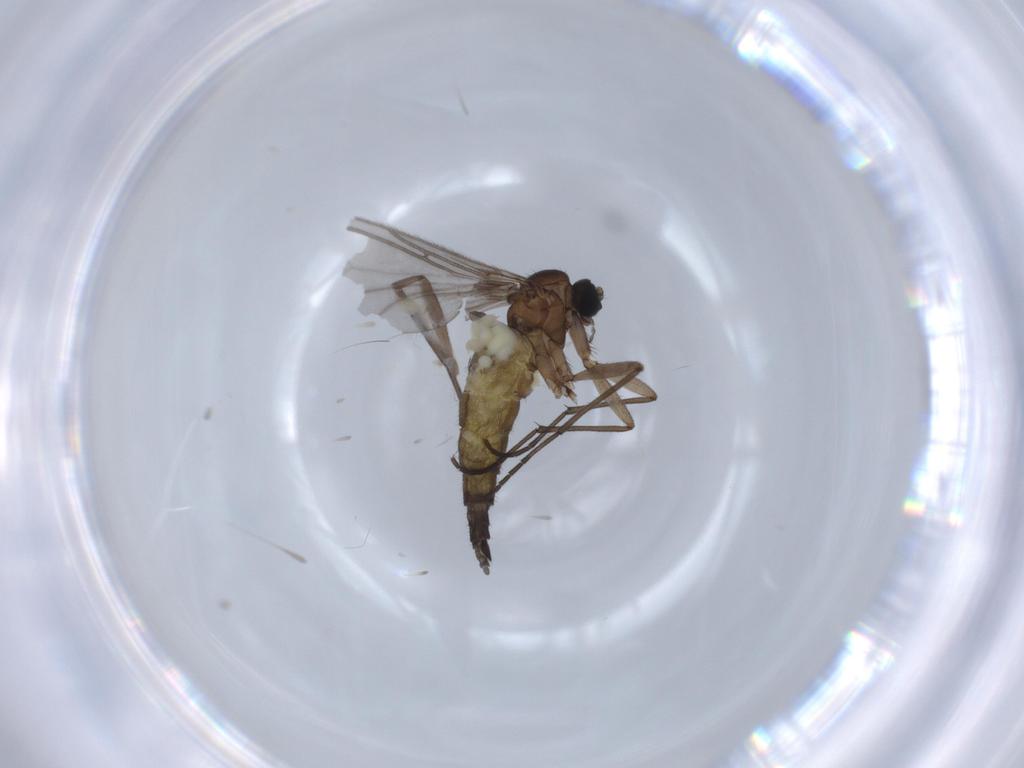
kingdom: Animalia
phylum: Arthropoda
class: Insecta
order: Diptera
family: Sciaridae
